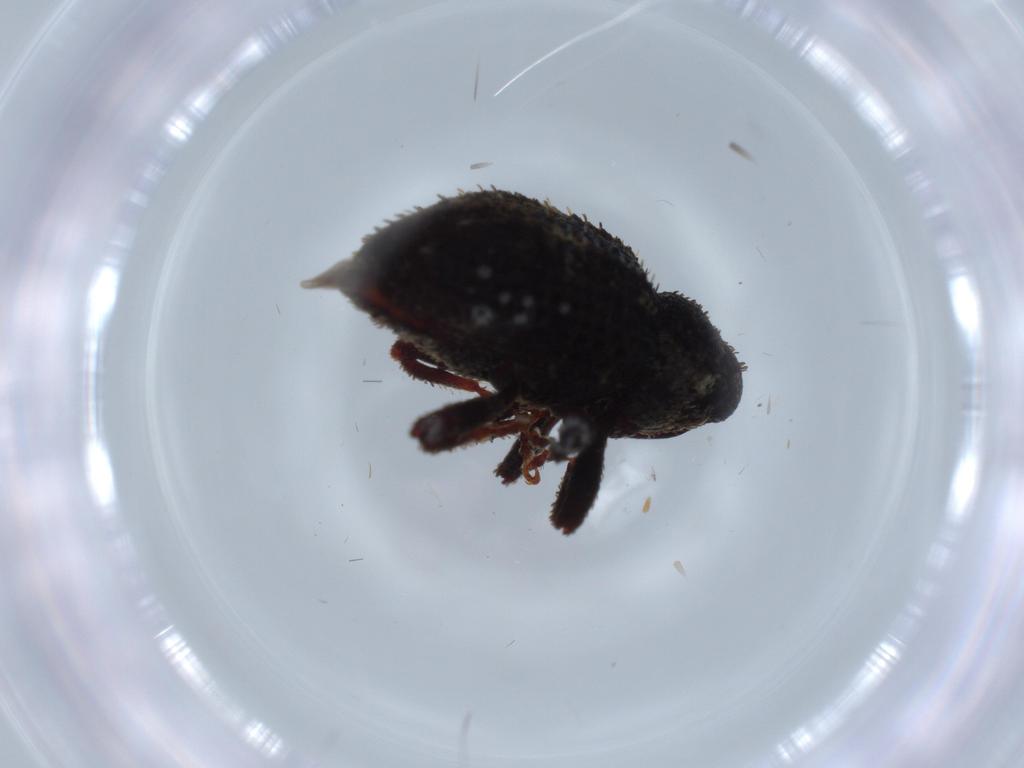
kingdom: Animalia
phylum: Arthropoda
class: Insecta
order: Coleoptera
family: Curculionidae
